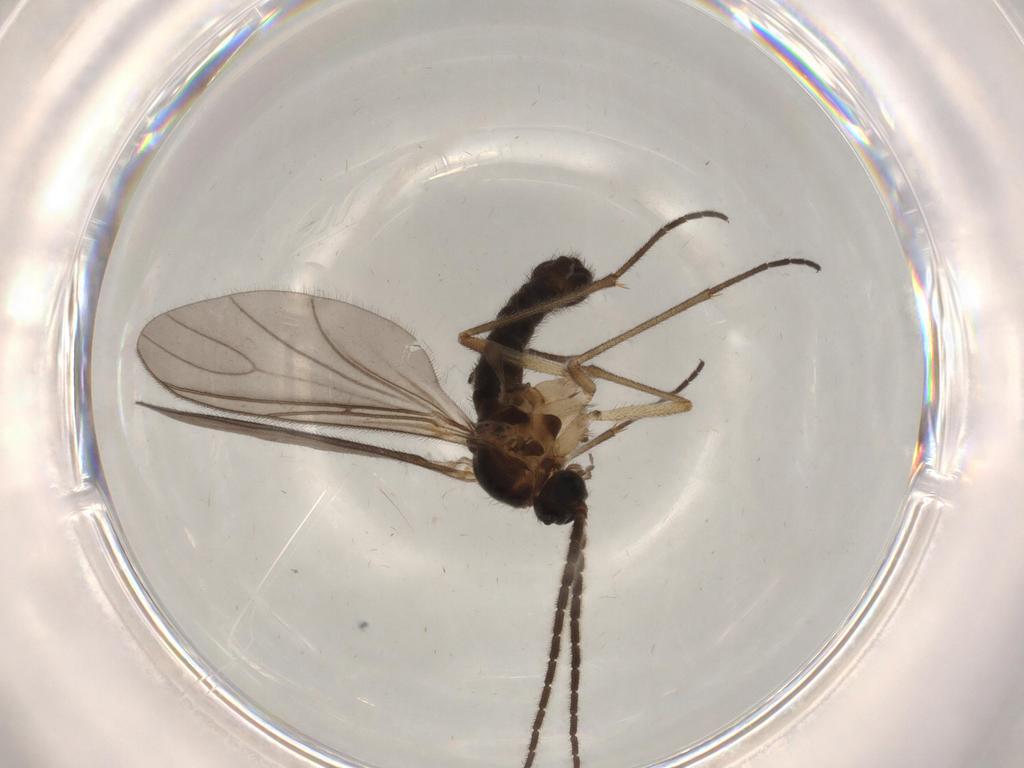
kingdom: Animalia
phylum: Arthropoda
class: Insecta
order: Diptera
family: Sciaridae
